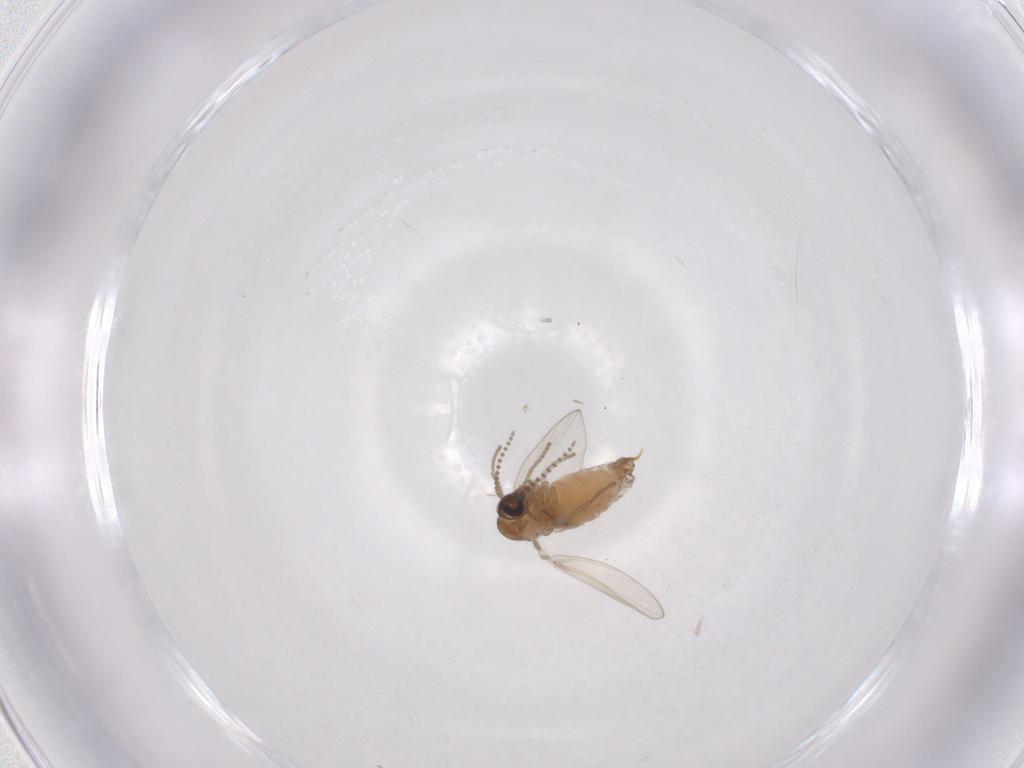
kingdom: Animalia
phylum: Arthropoda
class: Insecta
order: Diptera
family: Psychodidae
